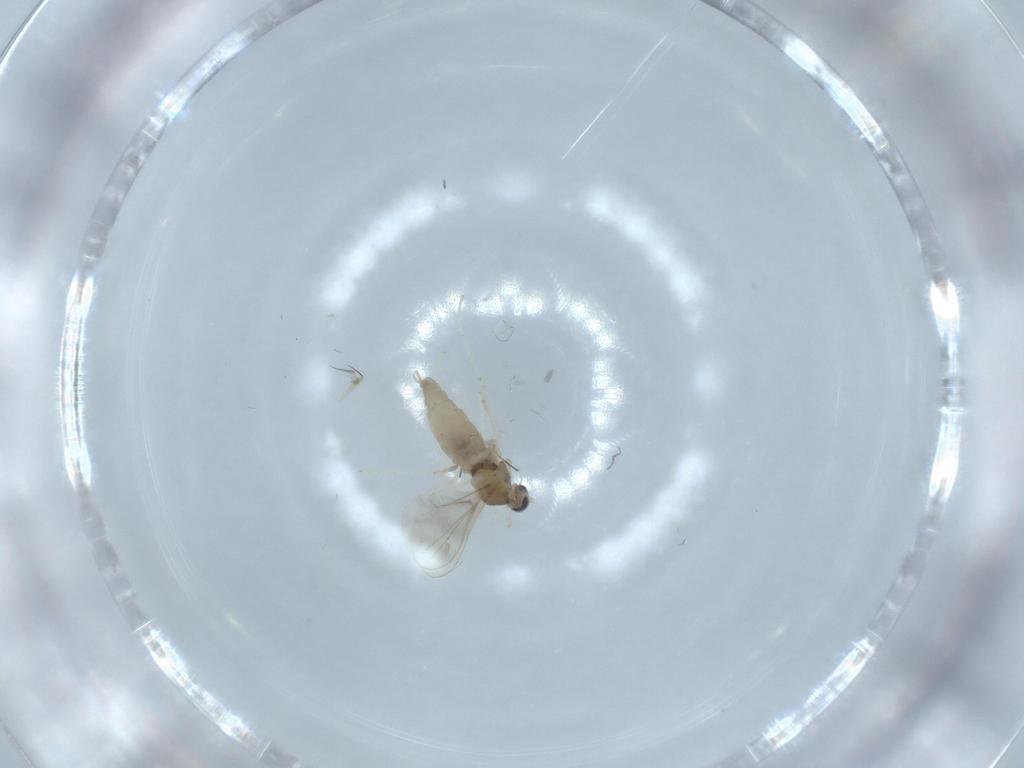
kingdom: Animalia
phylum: Arthropoda
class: Insecta
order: Diptera
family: Cecidomyiidae
